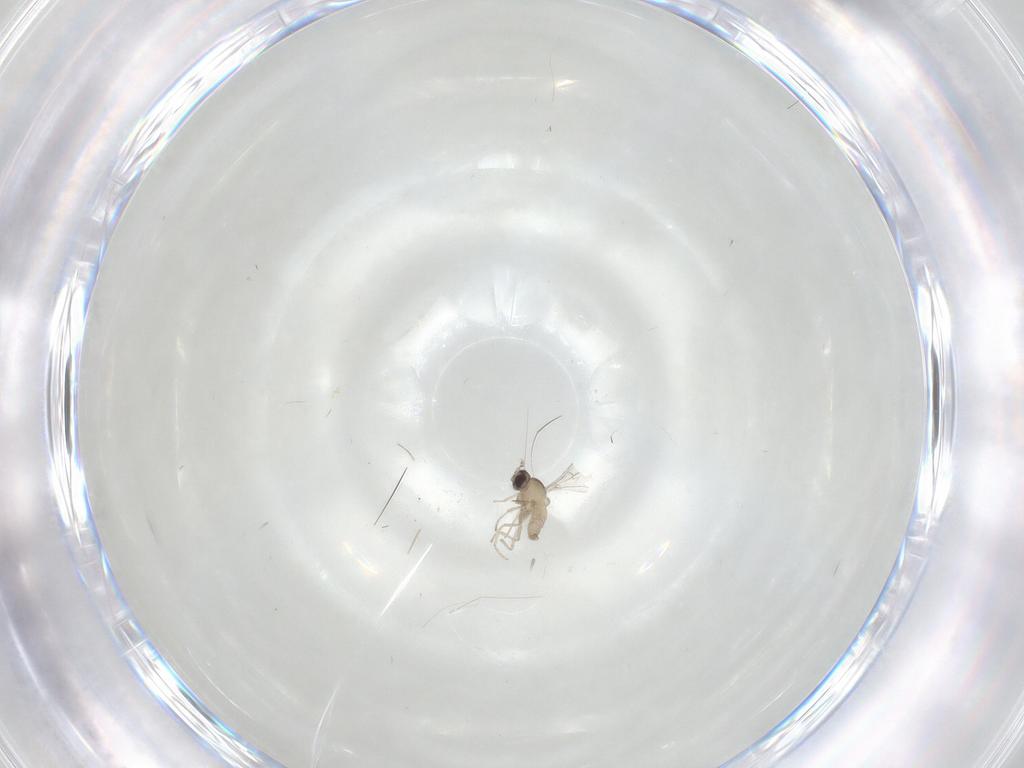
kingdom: Animalia
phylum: Arthropoda
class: Insecta
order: Diptera
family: Cecidomyiidae
